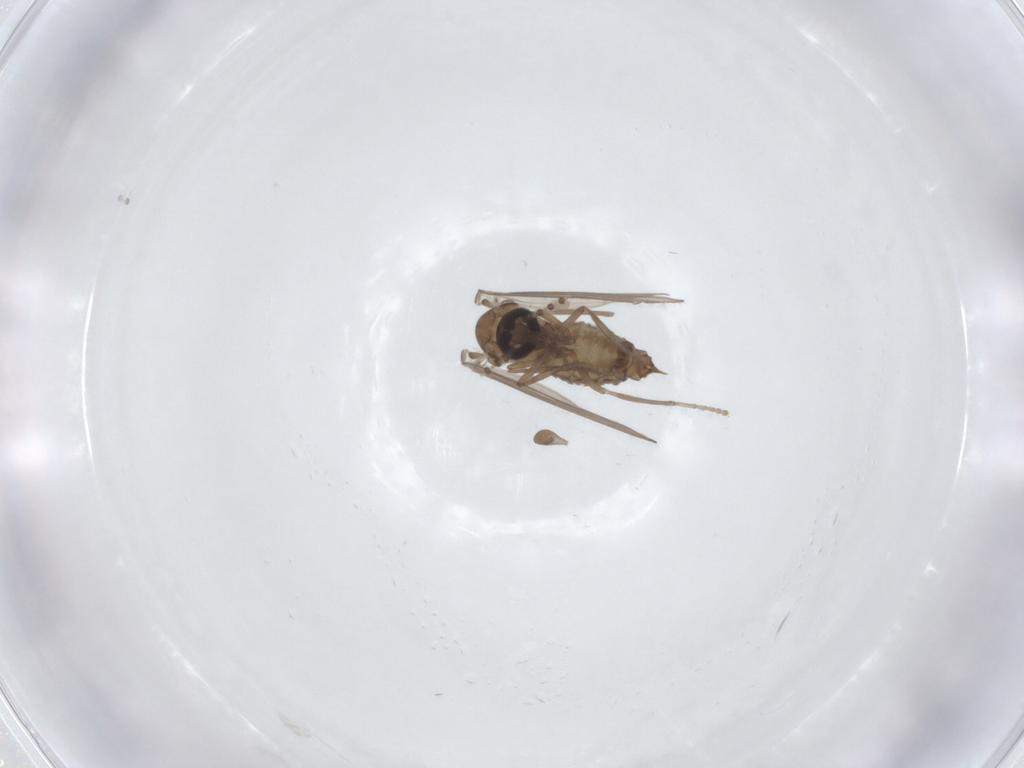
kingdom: Animalia
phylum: Arthropoda
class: Insecta
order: Diptera
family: Psychodidae
